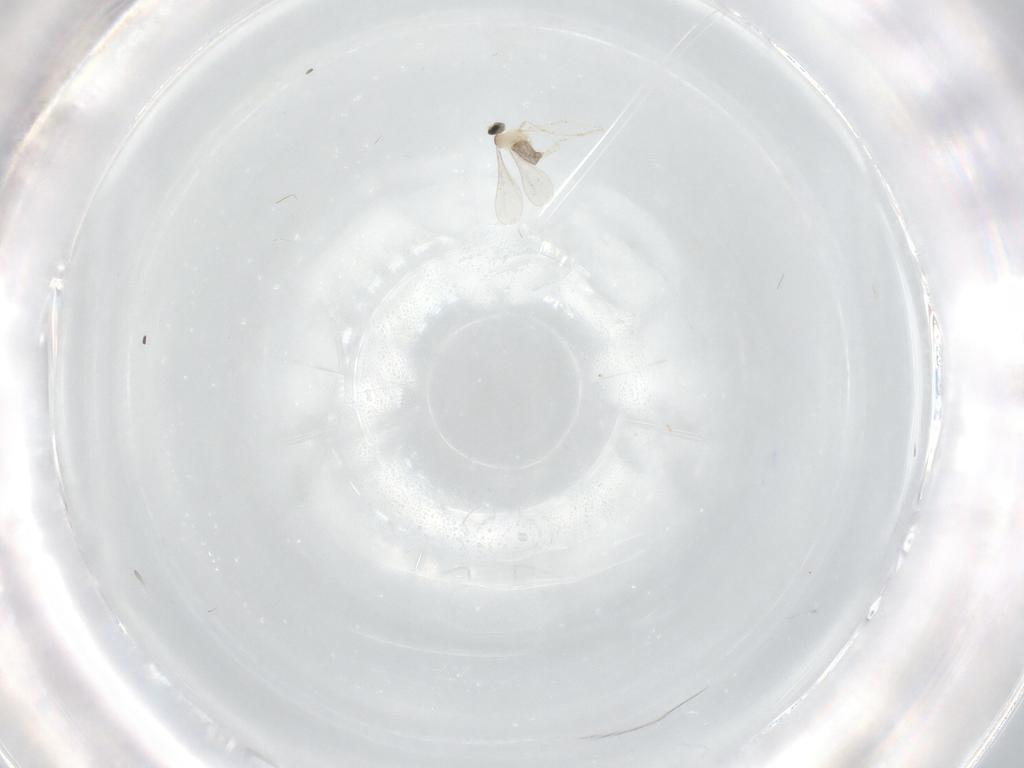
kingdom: Animalia
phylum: Arthropoda
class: Insecta
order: Diptera
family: Cecidomyiidae
